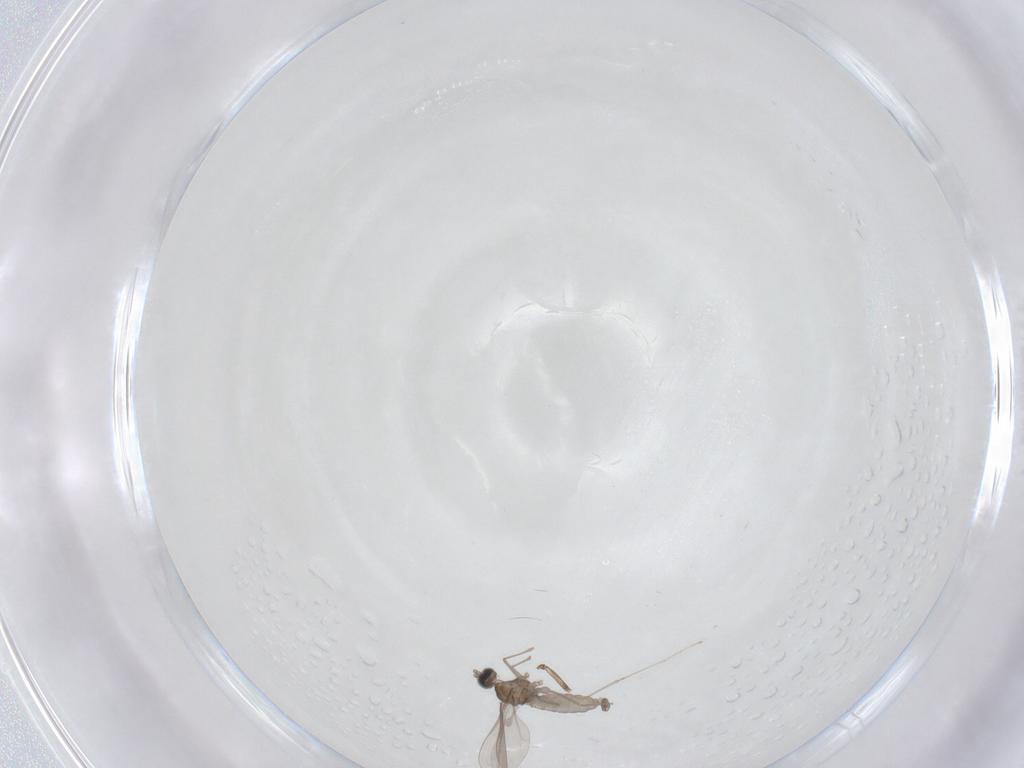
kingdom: Animalia
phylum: Arthropoda
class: Insecta
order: Diptera
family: Cecidomyiidae
